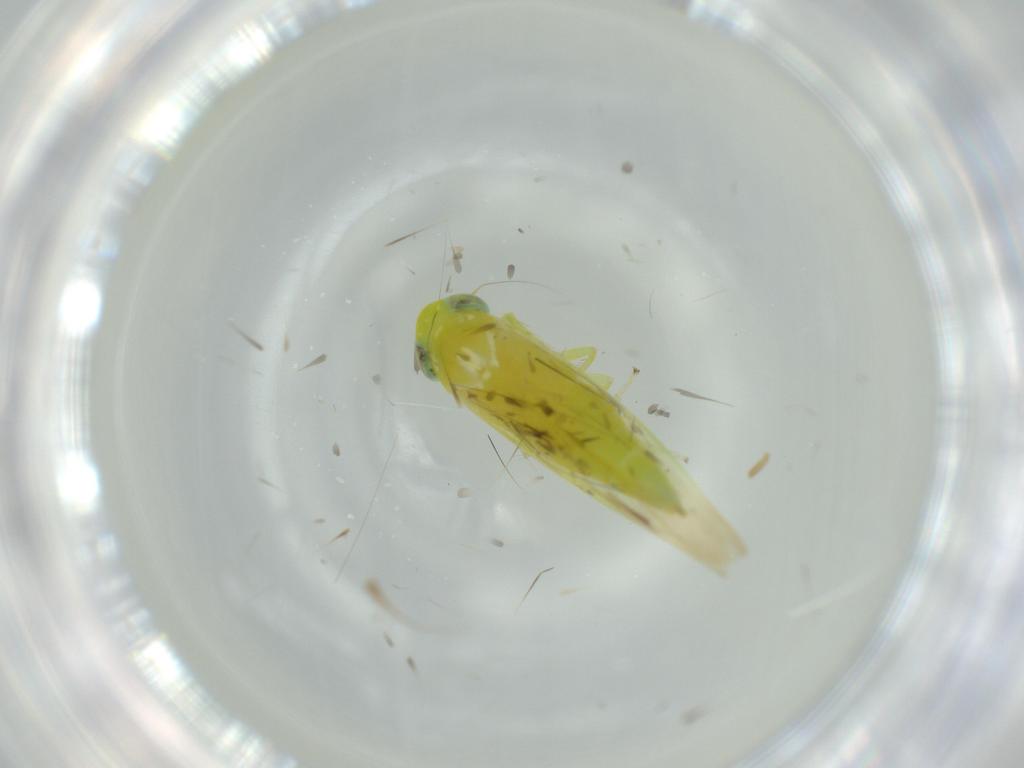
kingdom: Animalia
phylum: Arthropoda
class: Insecta
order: Hemiptera
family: Cicadellidae
